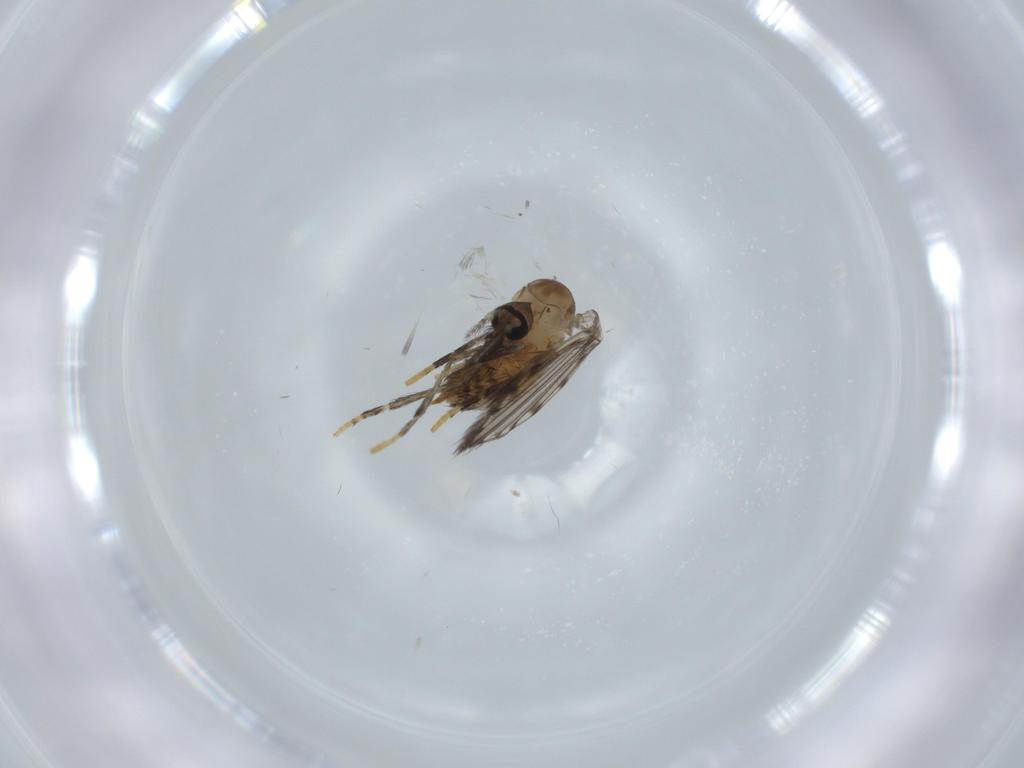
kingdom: Animalia
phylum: Arthropoda
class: Insecta
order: Diptera
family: Psychodidae
